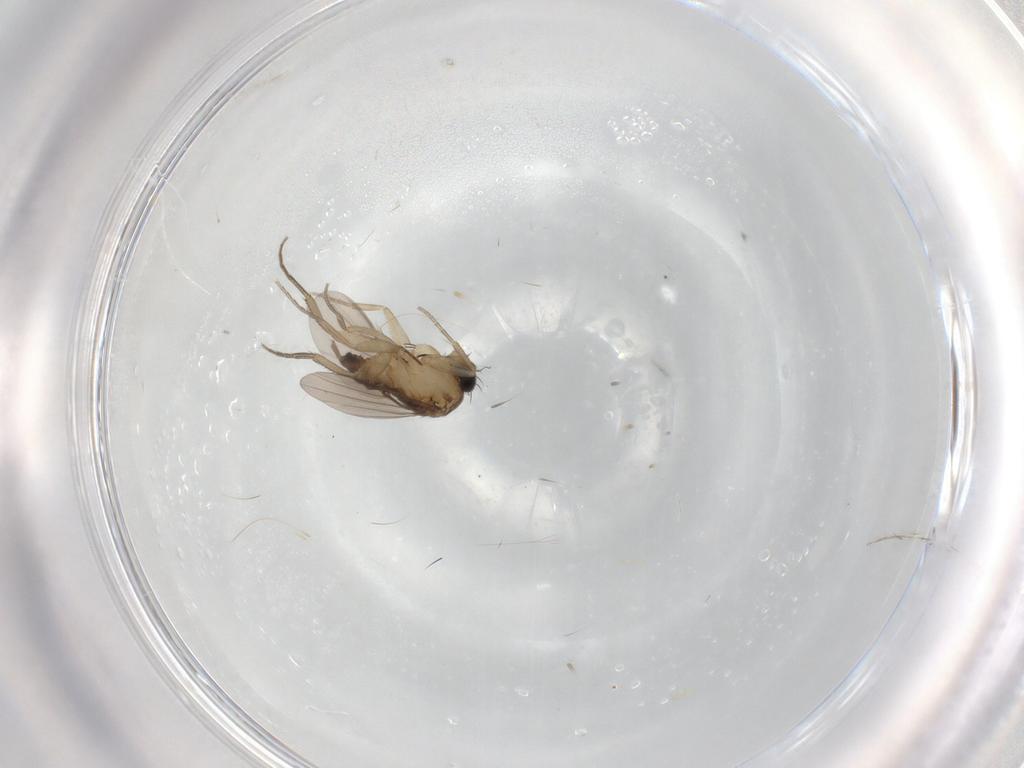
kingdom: Animalia
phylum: Arthropoda
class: Insecta
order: Diptera
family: Phoridae
